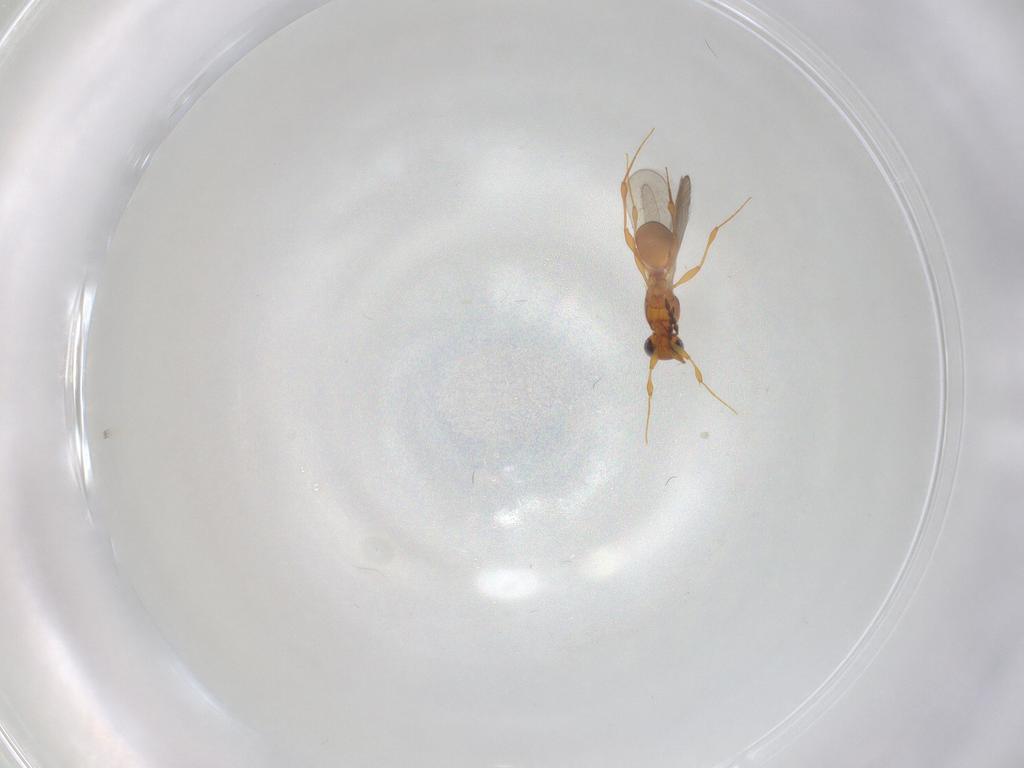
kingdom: Animalia
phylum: Arthropoda
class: Insecta
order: Hymenoptera
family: Platygastridae
